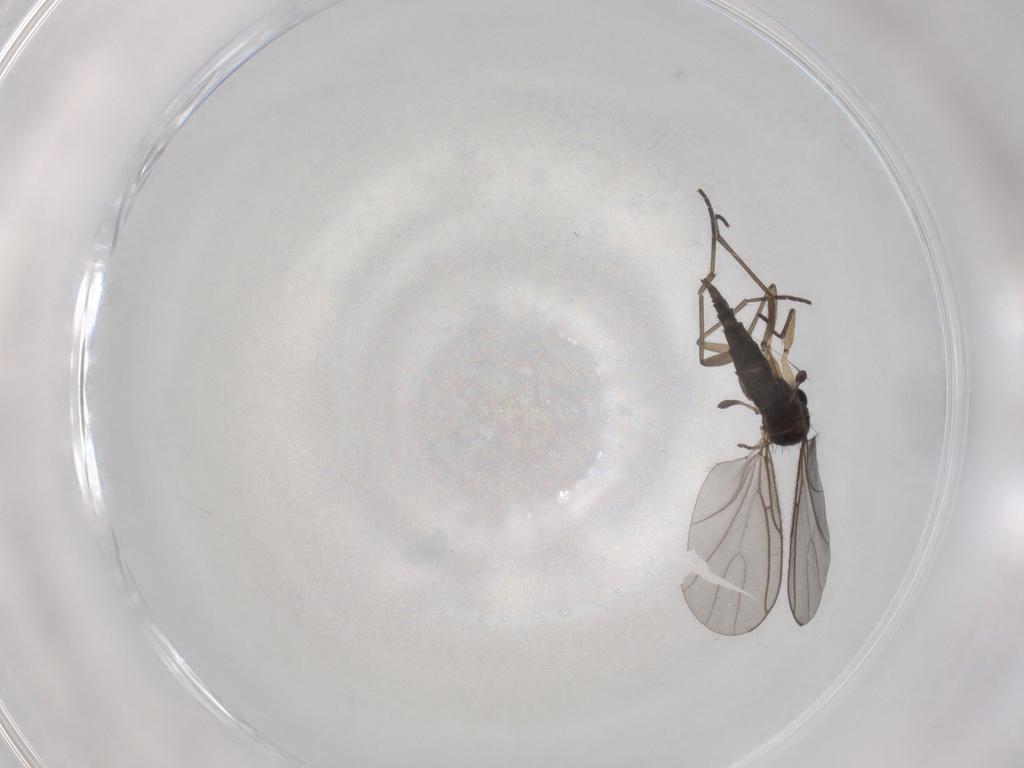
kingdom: Animalia
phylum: Arthropoda
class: Insecta
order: Diptera
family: Sciaridae
